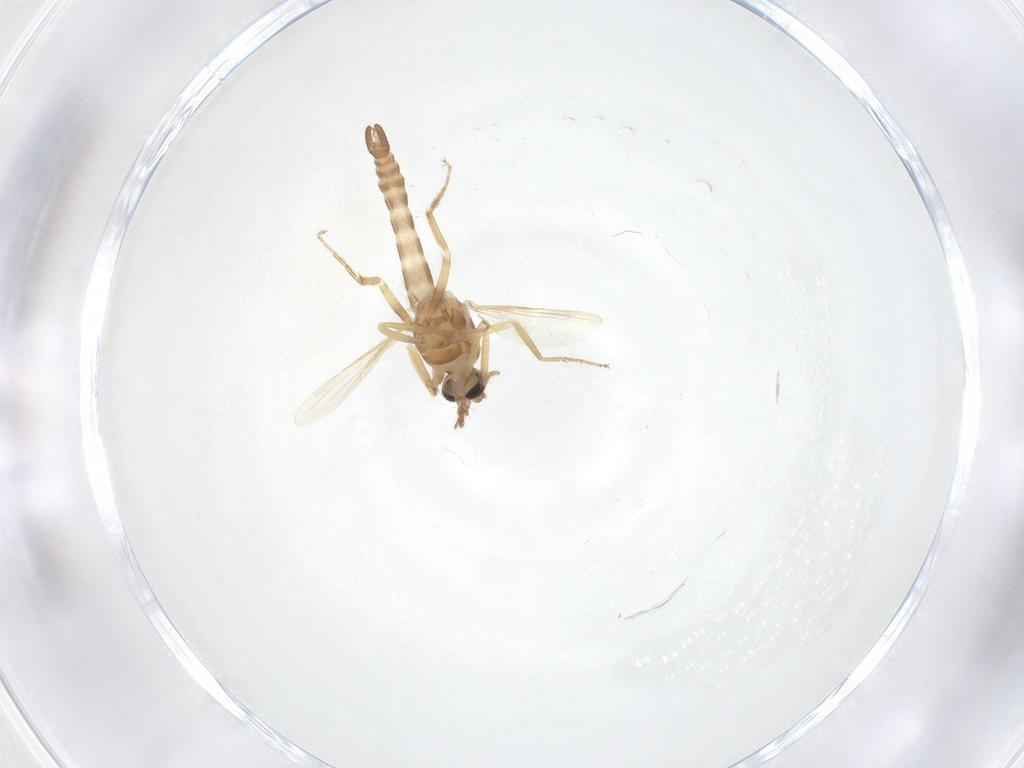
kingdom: Animalia
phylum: Arthropoda
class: Insecta
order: Diptera
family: Ceratopogonidae
